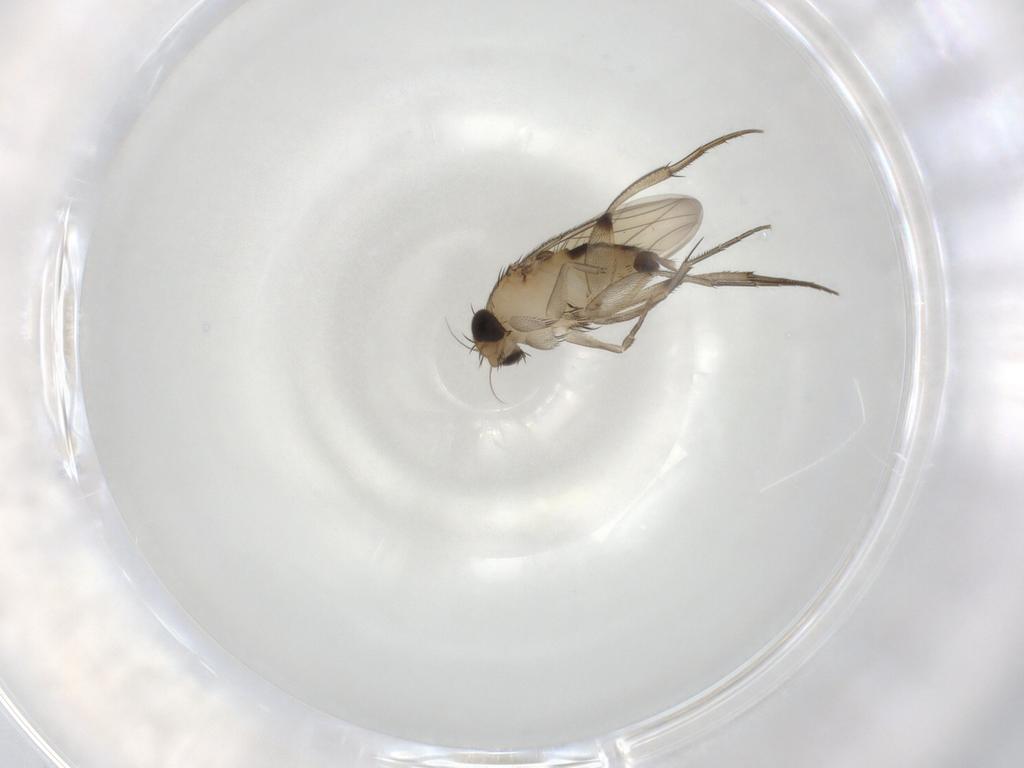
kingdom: Animalia
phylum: Arthropoda
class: Insecta
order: Diptera
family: Phoridae
